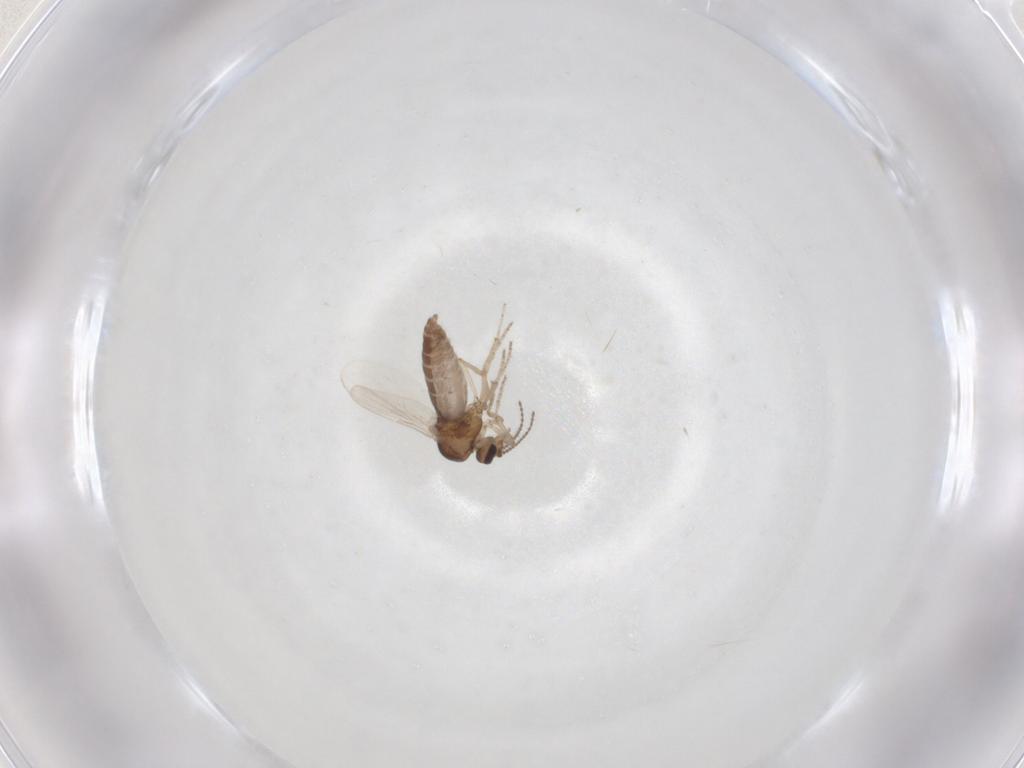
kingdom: Animalia
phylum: Arthropoda
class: Insecta
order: Diptera
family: Ceratopogonidae
